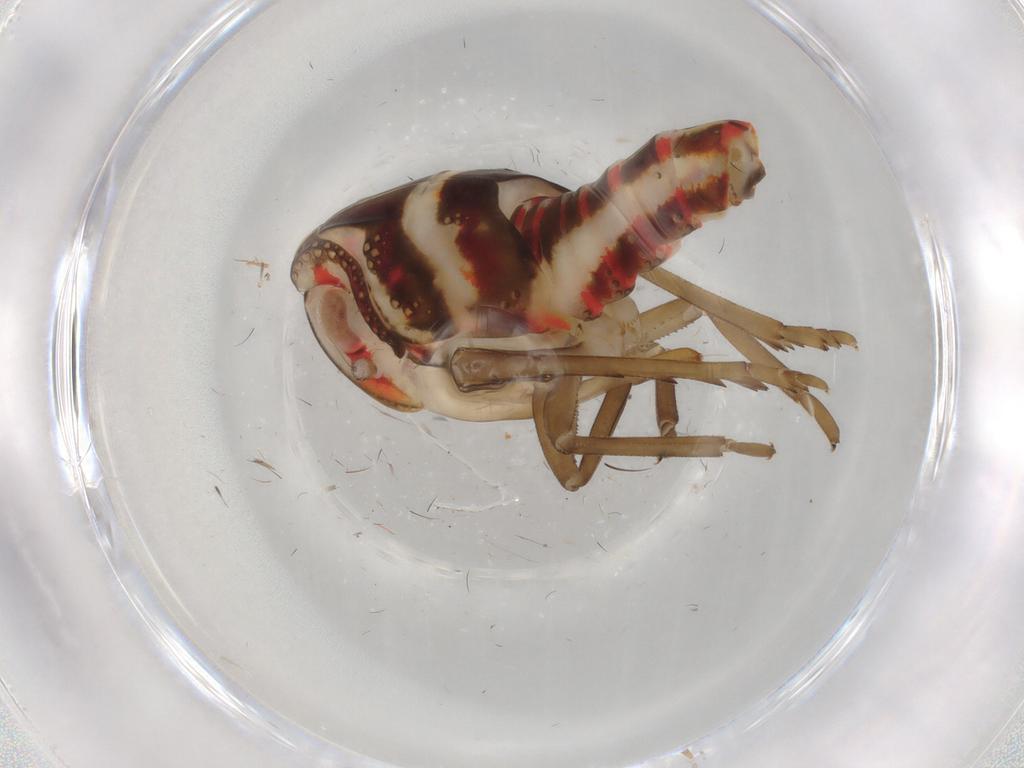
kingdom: Animalia
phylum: Arthropoda
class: Insecta
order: Hemiptera
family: Nogodinidae
